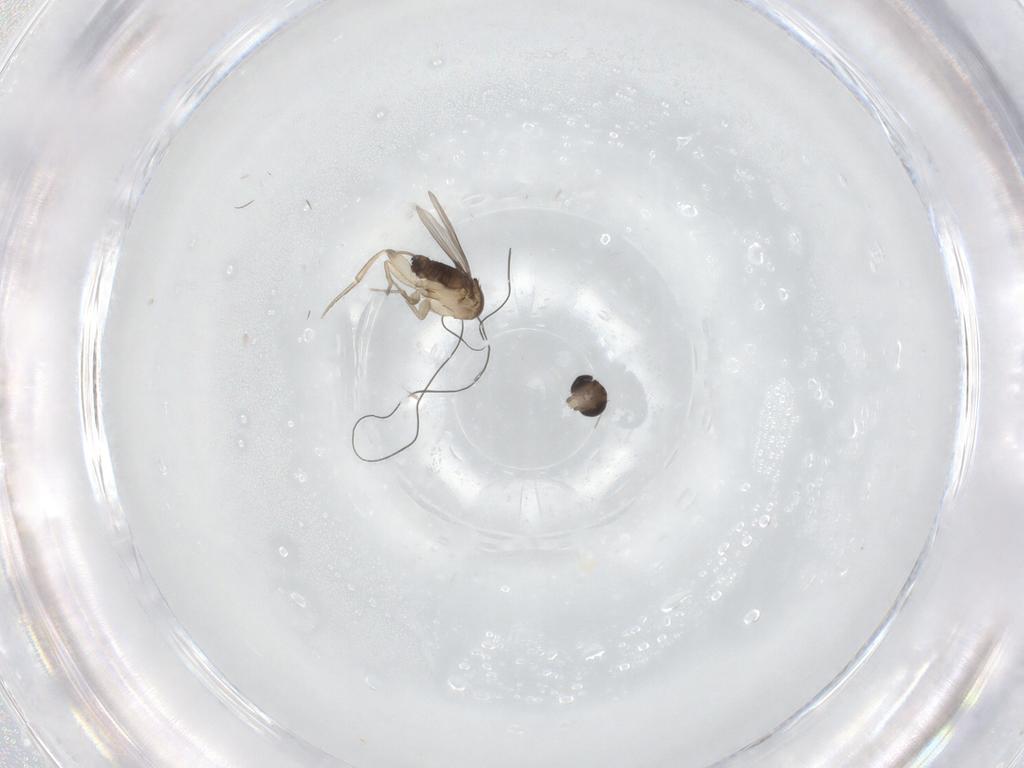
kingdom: Animalia
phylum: Arthropoda
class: Insecta
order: Diptera
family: Phoridae
